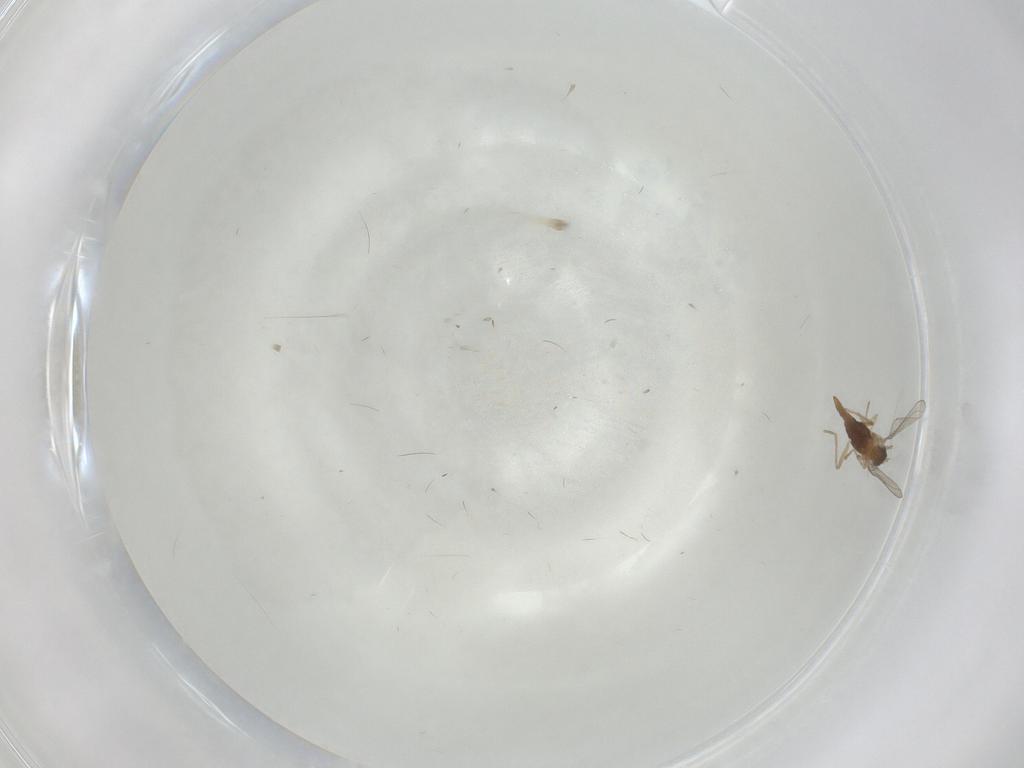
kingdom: Animalia
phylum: Arthropoda
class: Insecta
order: Diptera
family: Cecidomyiidae
